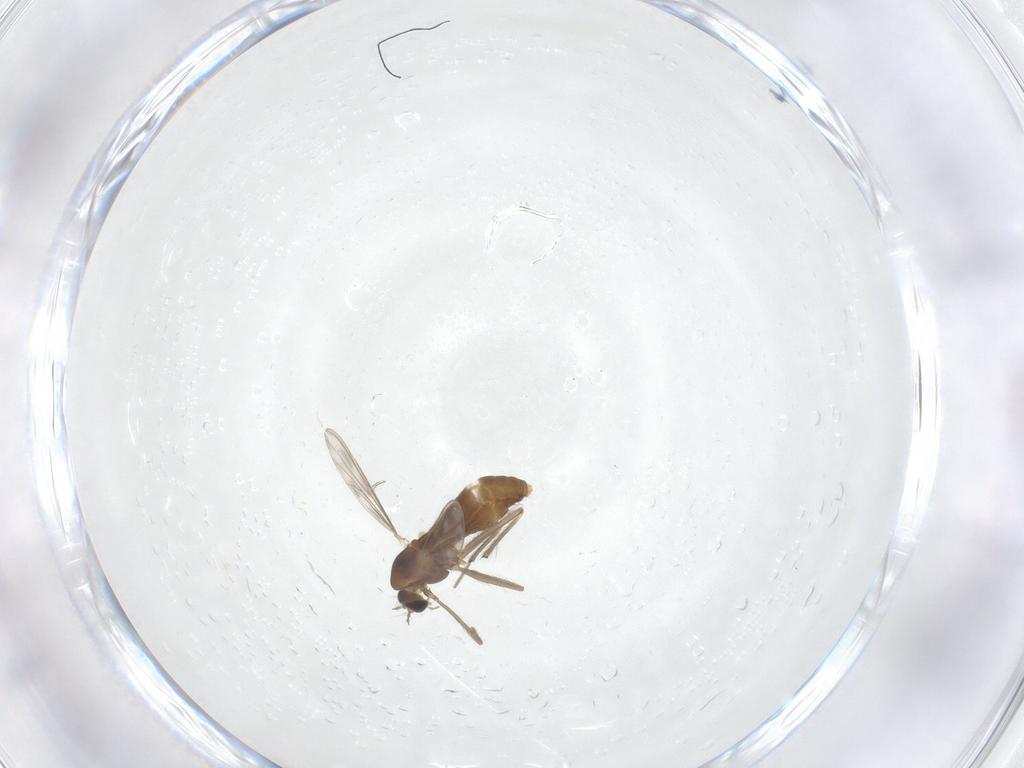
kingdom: Animalia
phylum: Arthropoda
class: Insecta
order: Diptera
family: Chironomidae
